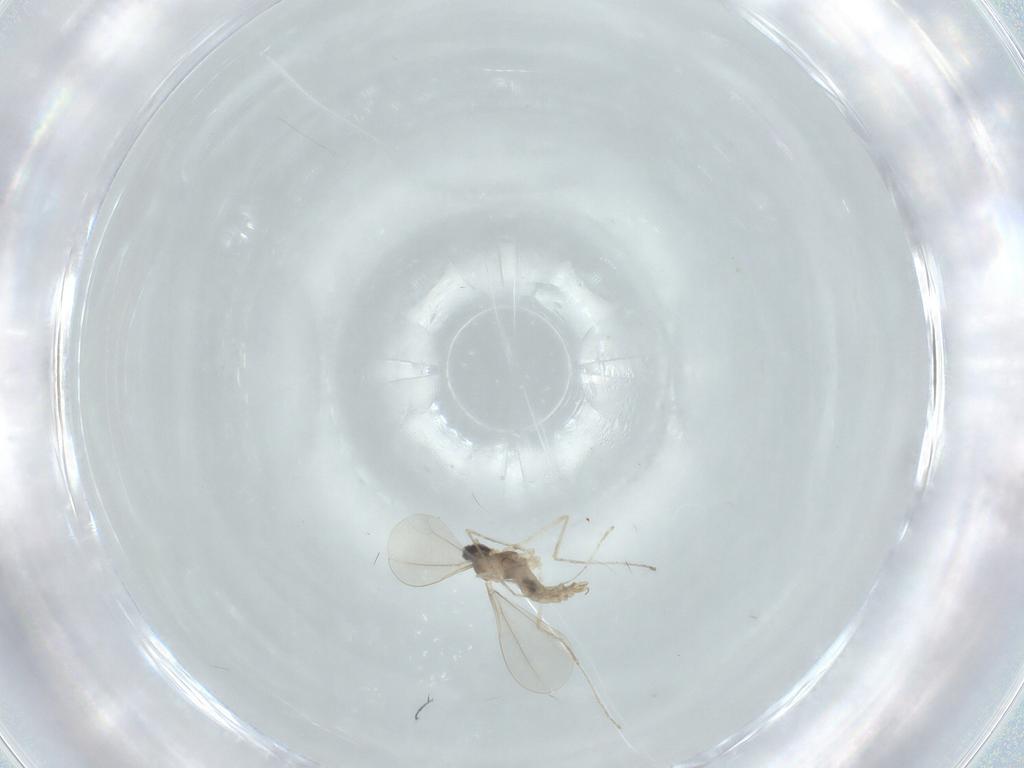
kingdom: Animalia
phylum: Arthropoda
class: Insecta
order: Diptera
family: Cecidomyiidae
